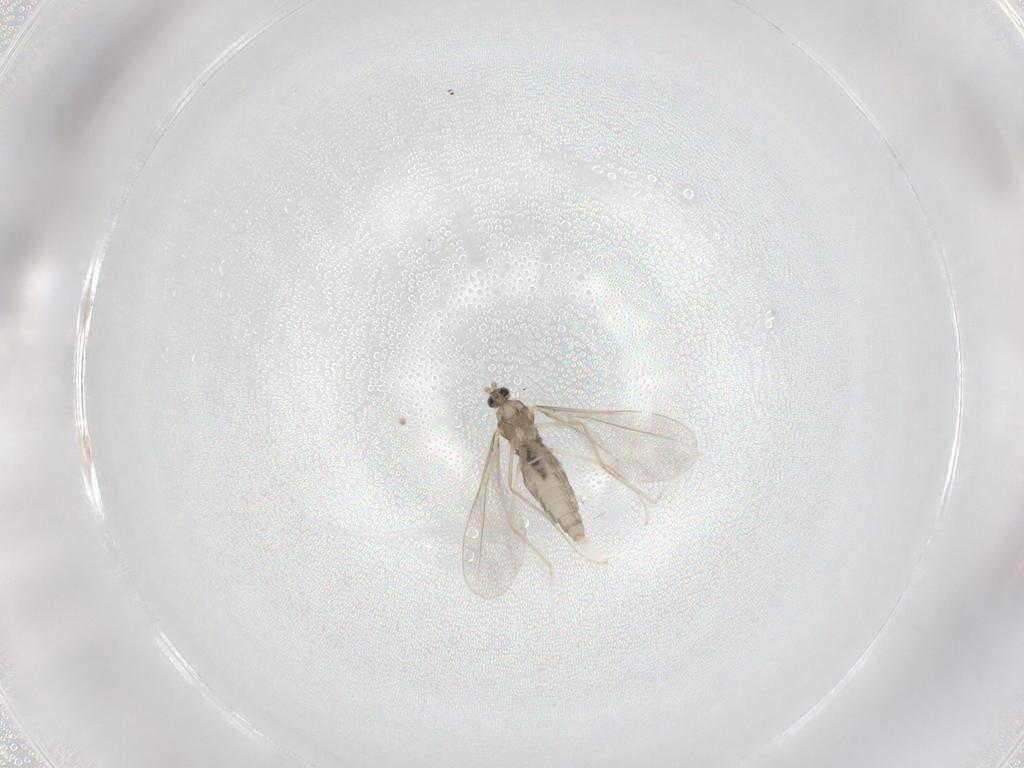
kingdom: Animalia
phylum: Arthropoda
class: Insecta
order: Diptera
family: Cecidomyiidae
